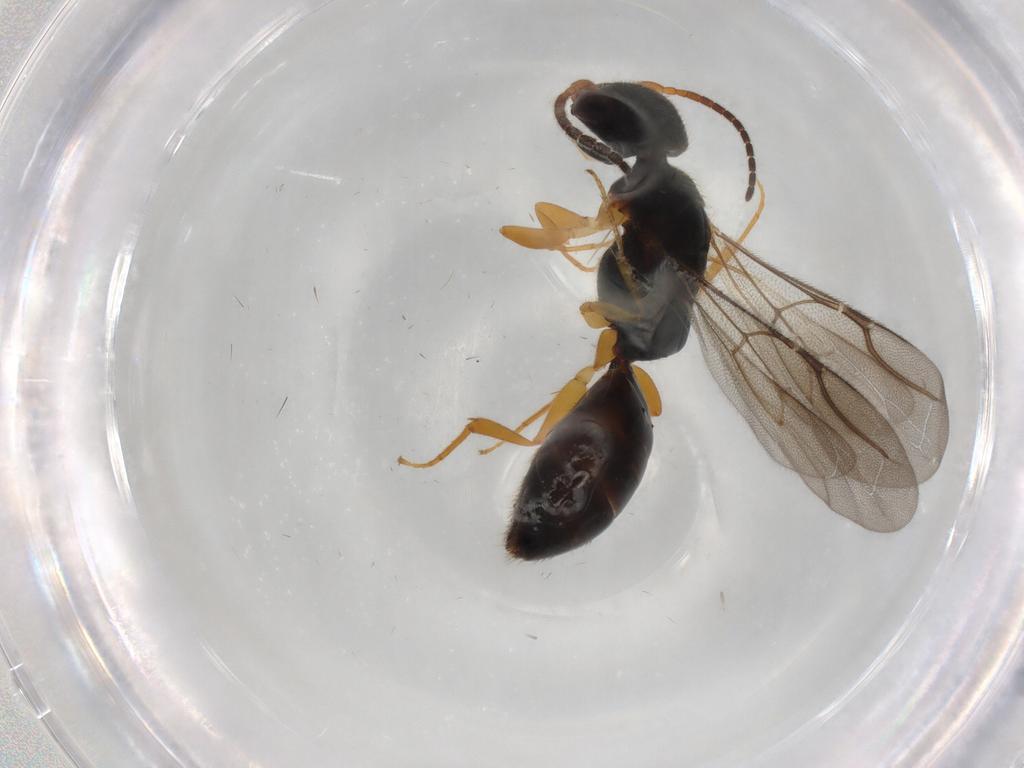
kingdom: Animalia
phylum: Arthropoda
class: Insecta
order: Hymenoptera
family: Bethylidae
